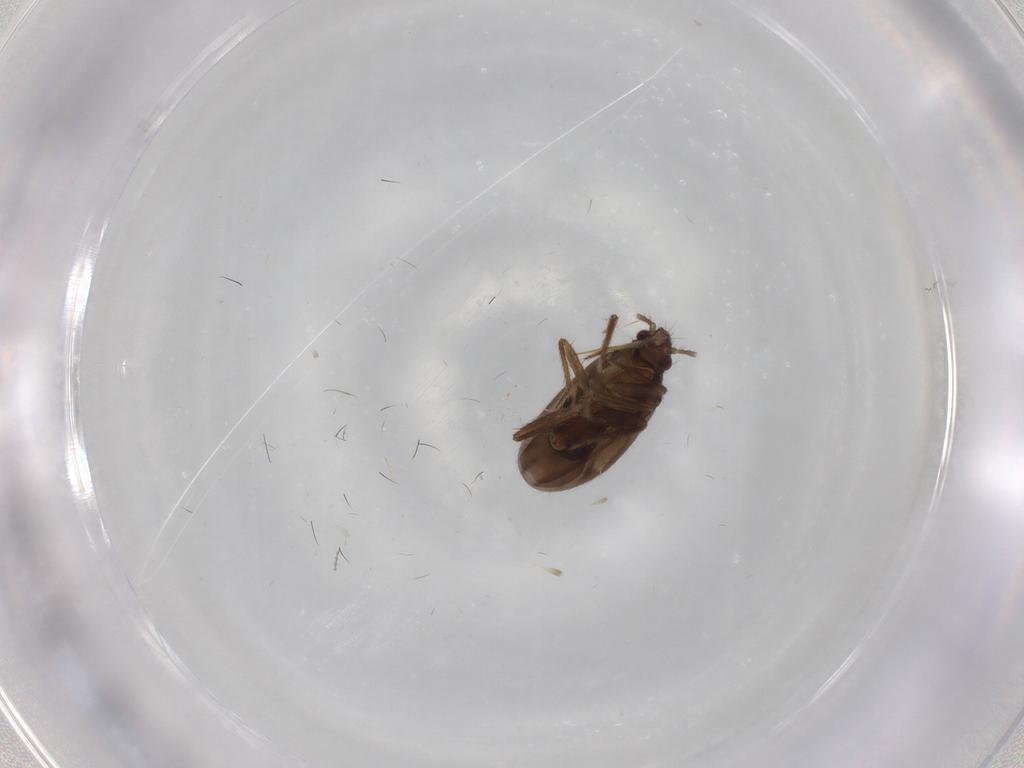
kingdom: Animalia
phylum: Arthropoda
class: Insecta
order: Hemiptera
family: Ceratocombidae
